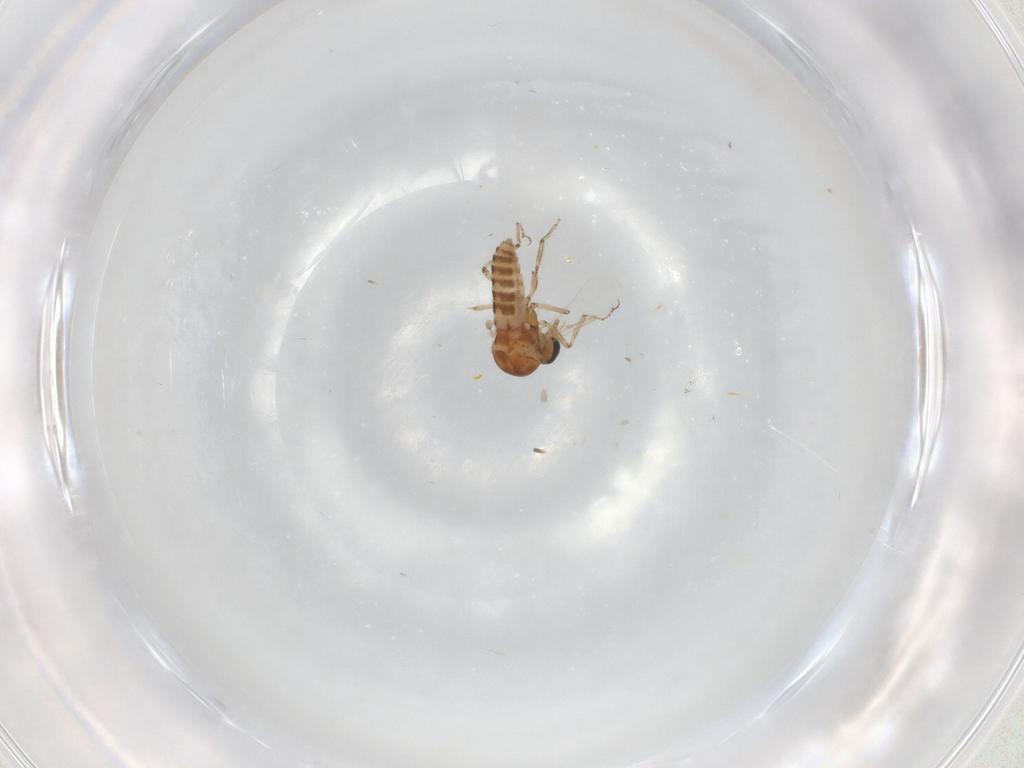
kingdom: Animalia
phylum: Arthropoda
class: Insecta
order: Diptera
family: Ceratopogonidae
